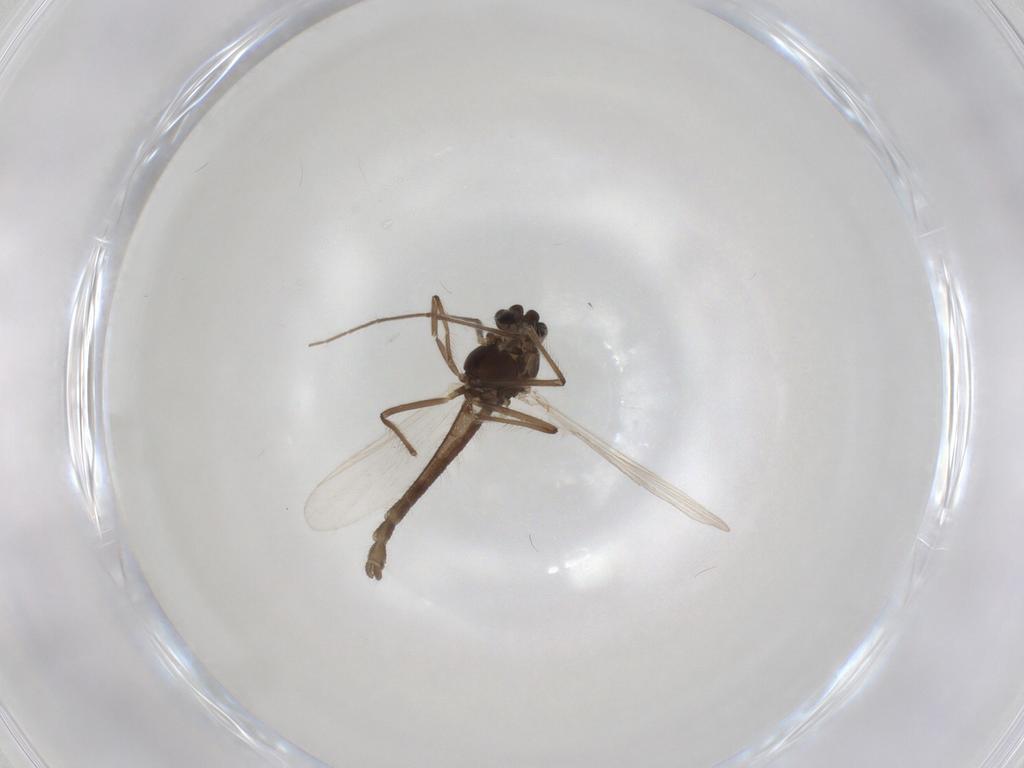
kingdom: Animalia
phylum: Arthropoda
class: Insecta
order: Diptera
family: Chironomidae
